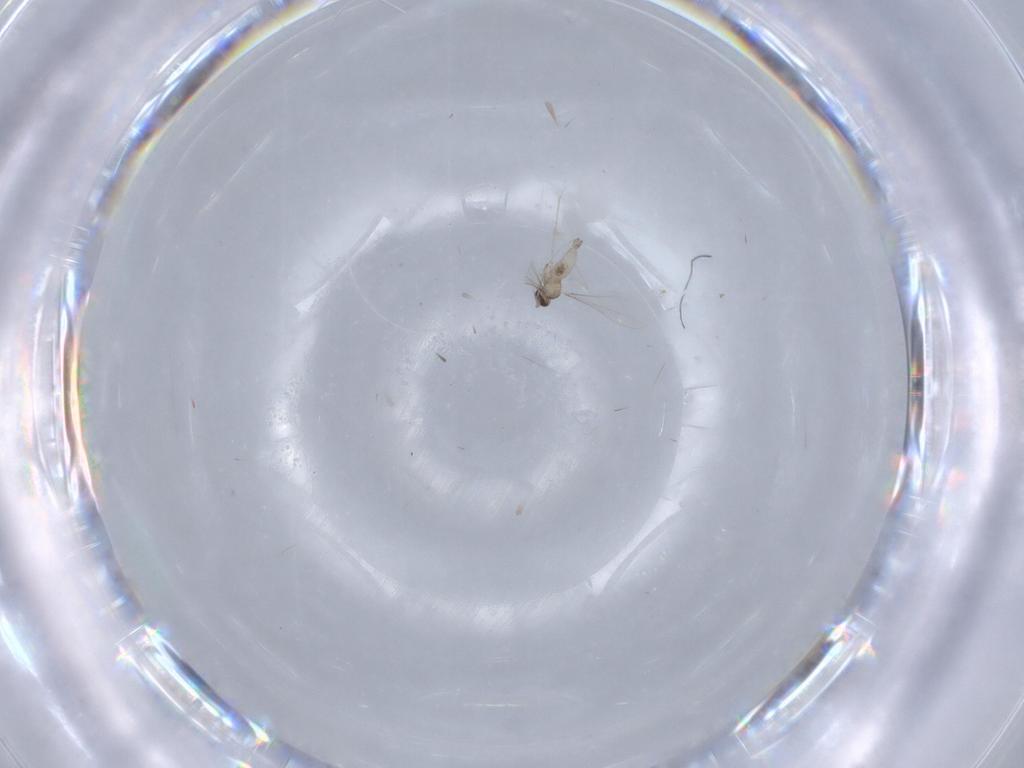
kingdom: Animalia
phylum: Arthropoda
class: Insecta
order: Diptera
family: Cecidomyiidae
